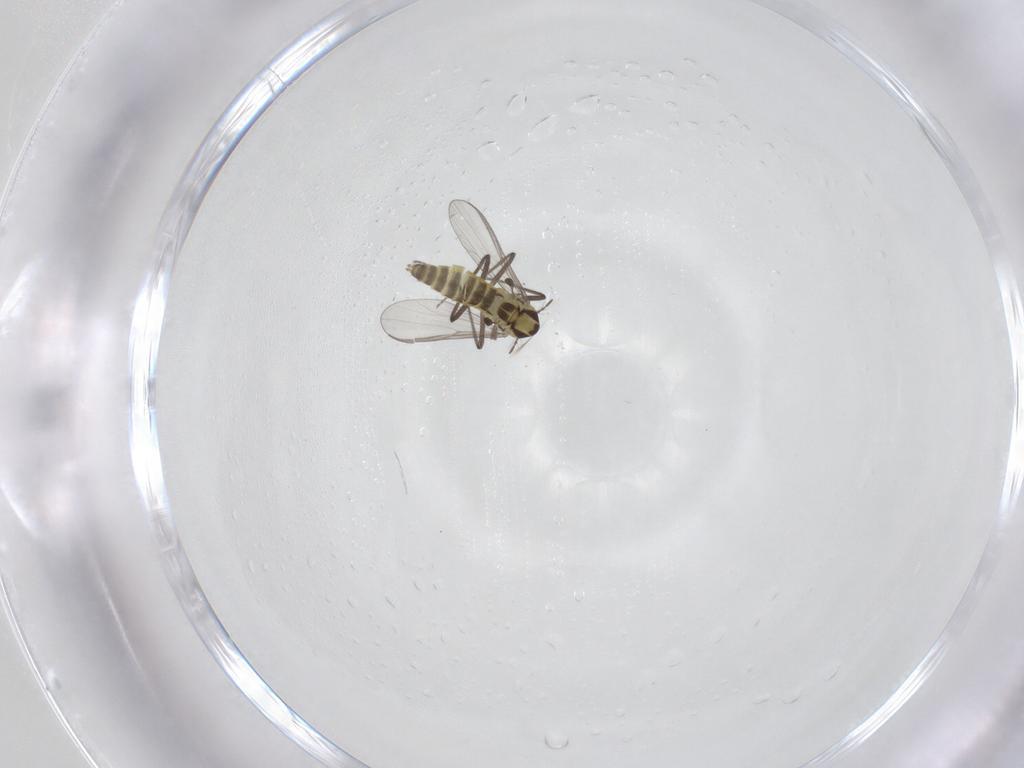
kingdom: Animalia
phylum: Arthropoda
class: Insecta
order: Diptera
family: Chironomidae
